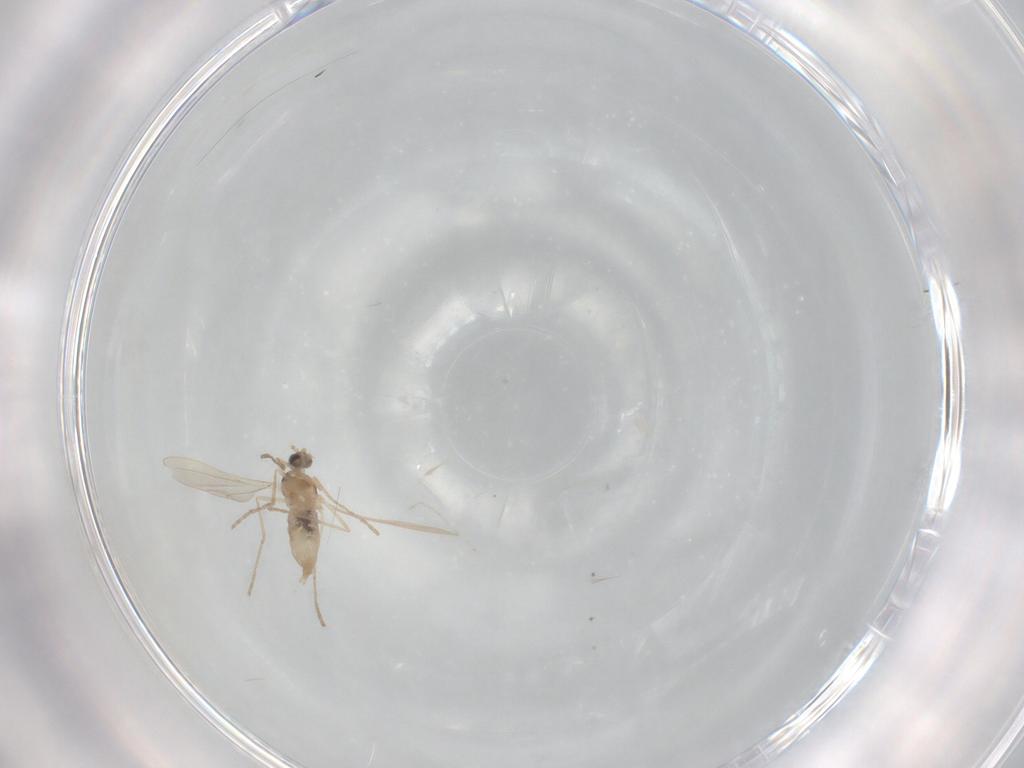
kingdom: Animalia
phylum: Arthropoda
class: Insecta
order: Diptera
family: Cecidomyiidae
